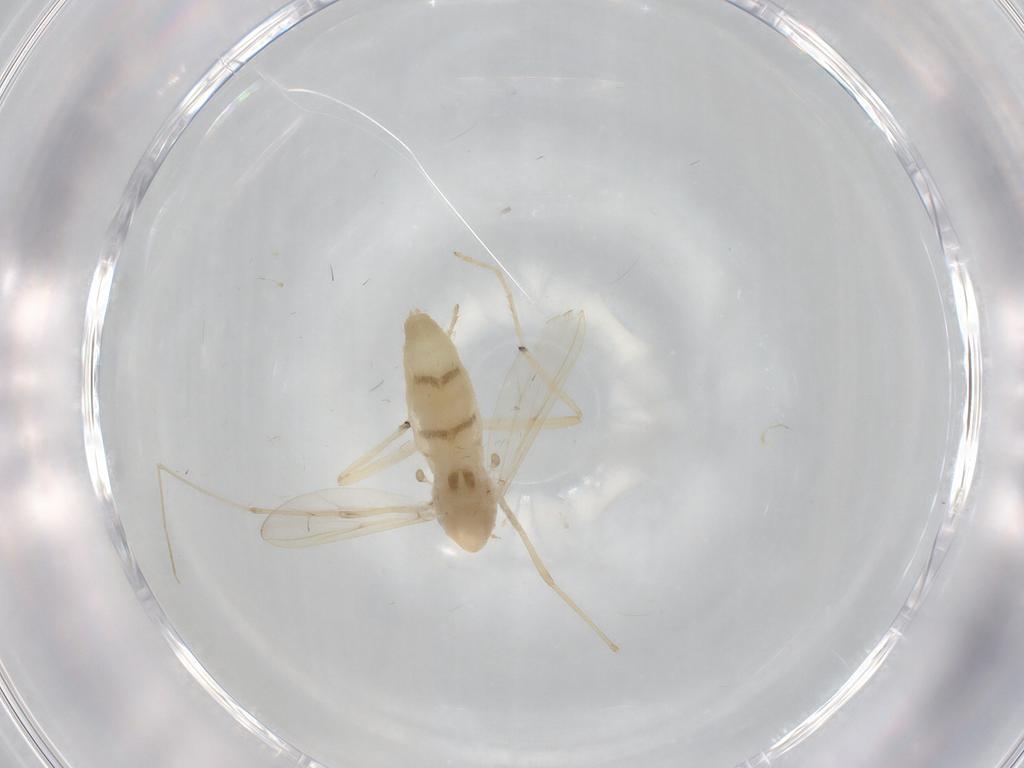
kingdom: Animalia
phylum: Arthropoda
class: Insecta
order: Diptera
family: Chironomidae
